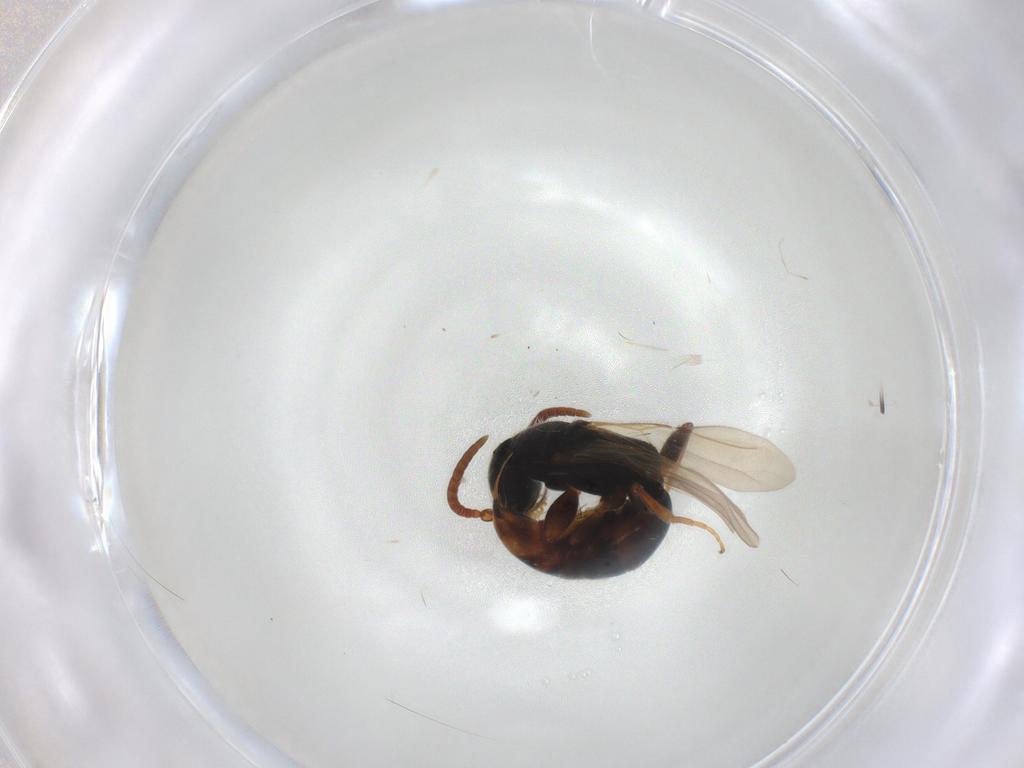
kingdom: Animalia
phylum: Arthropoda
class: Insecta
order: Hymenoptera
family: Bethylidae
